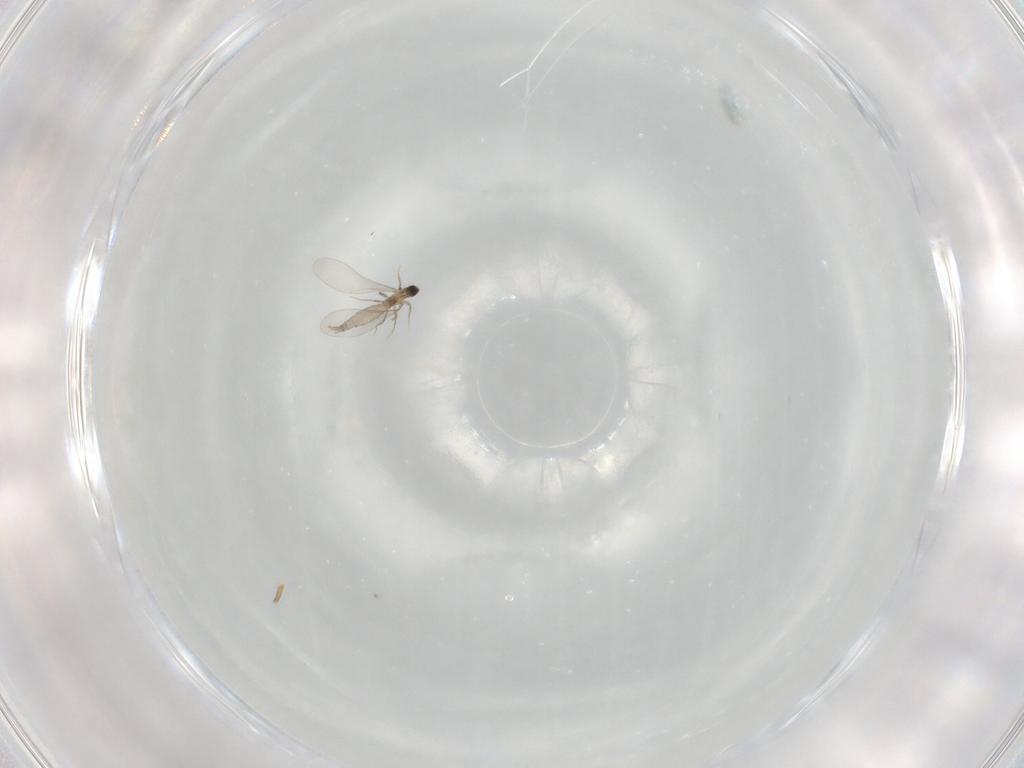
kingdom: Animalia
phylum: Arthropoda
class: Insecta
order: Diptera
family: Cecidomyiidae
